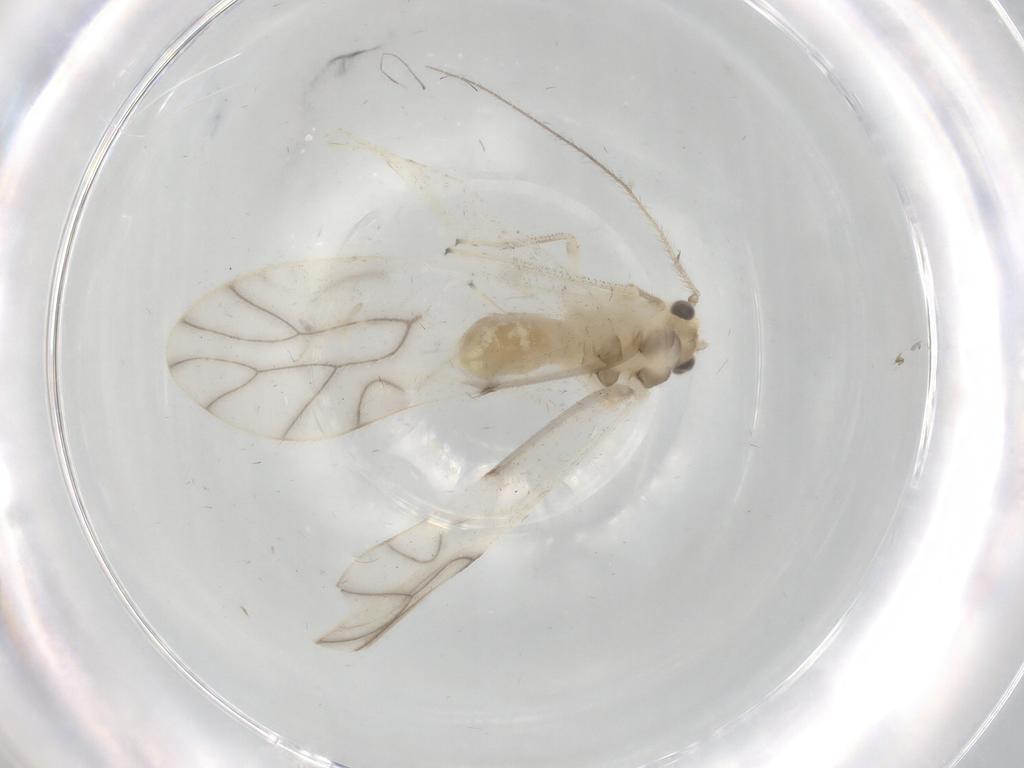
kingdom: Animalia
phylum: Arthropoda
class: Insecta
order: Psocodea
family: Caeciliusidae
